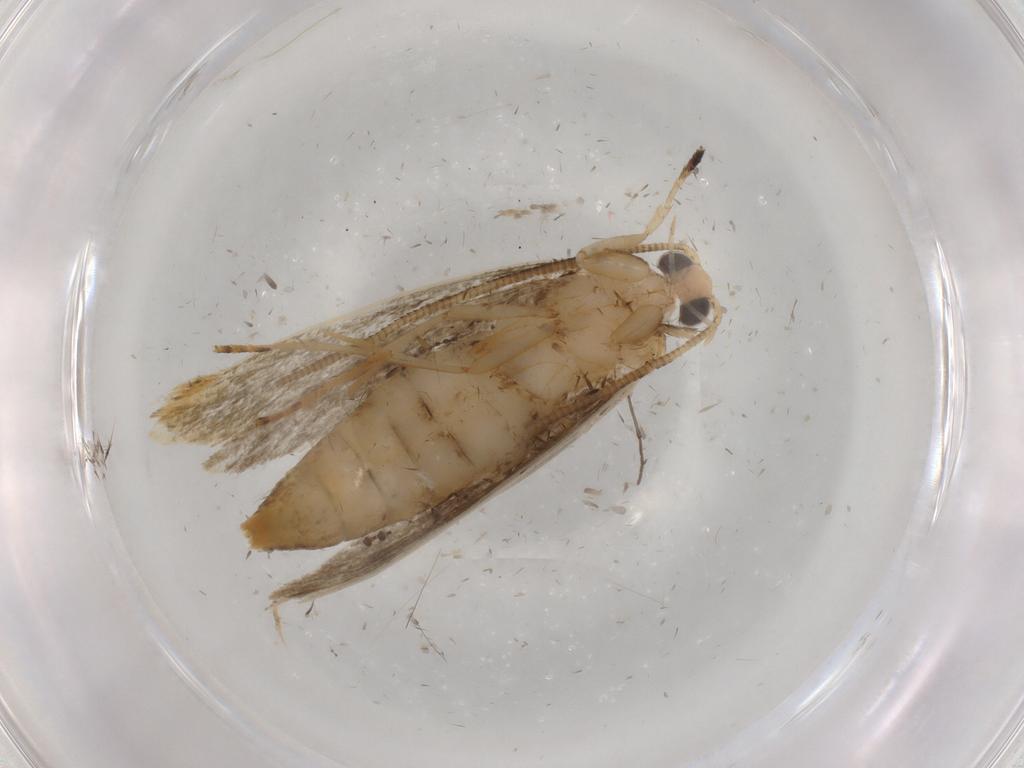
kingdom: Animalia
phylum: Arthropoda
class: Insecta
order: Lepidoptera
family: Tineidae
